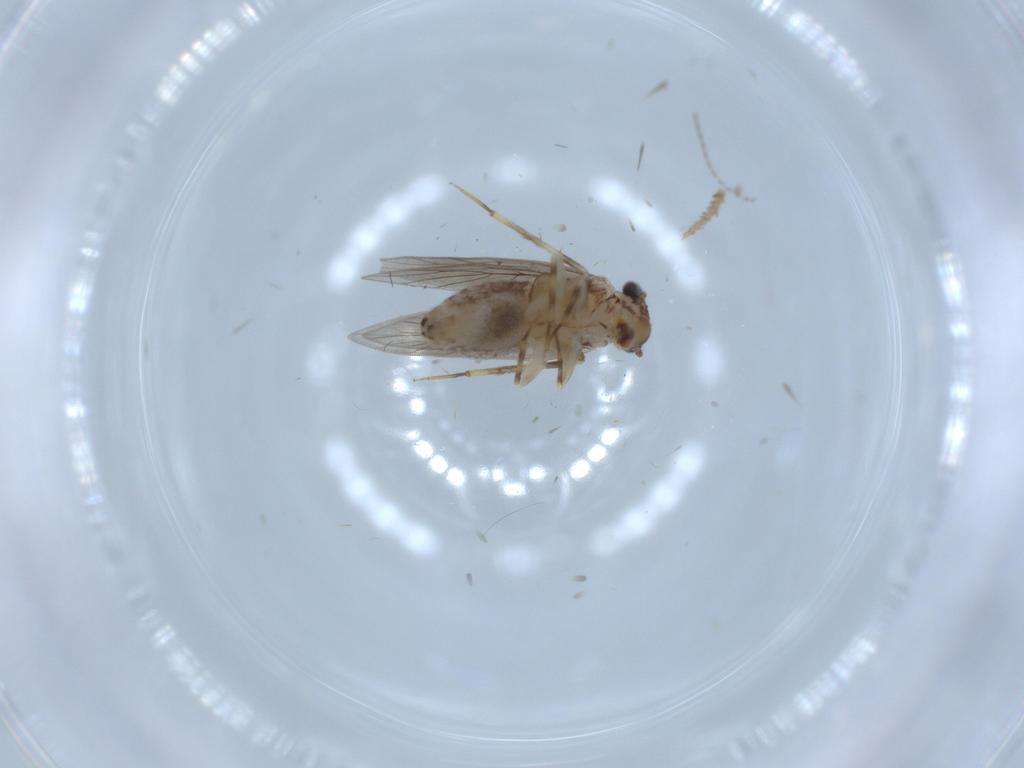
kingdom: Animalia
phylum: Arthropoda
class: Insecta
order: Psocodea
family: Lepidopsocidae
